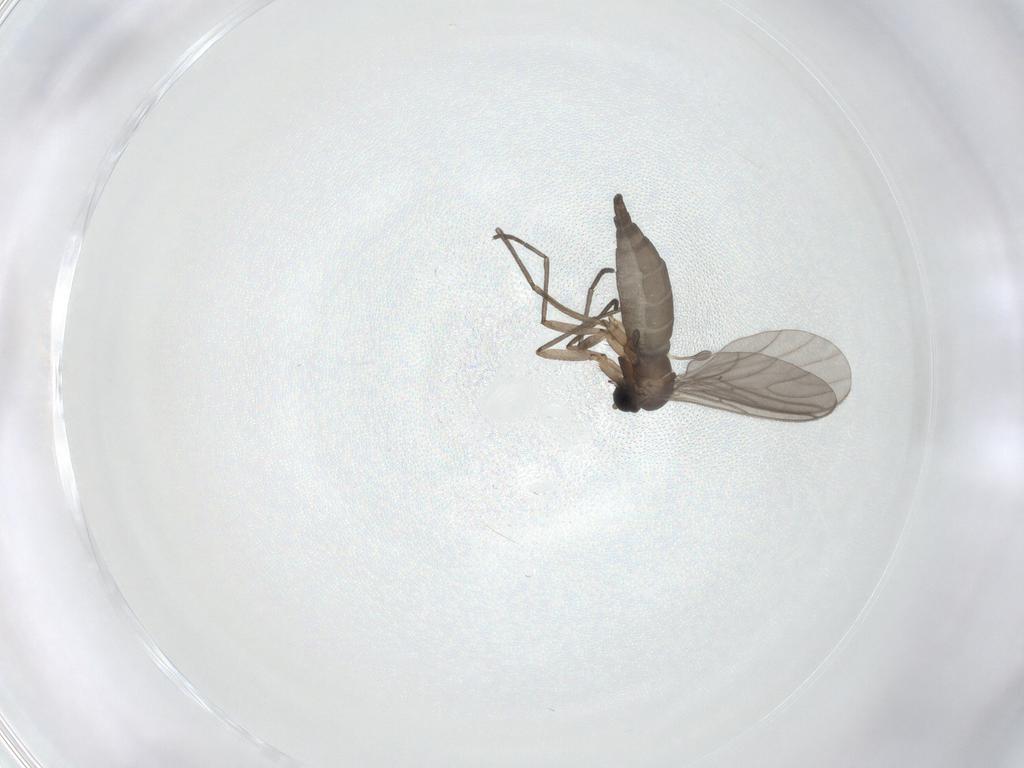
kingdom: Animalia
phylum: Arthropoda
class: Insecta
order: Diptera
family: Sciaridae
